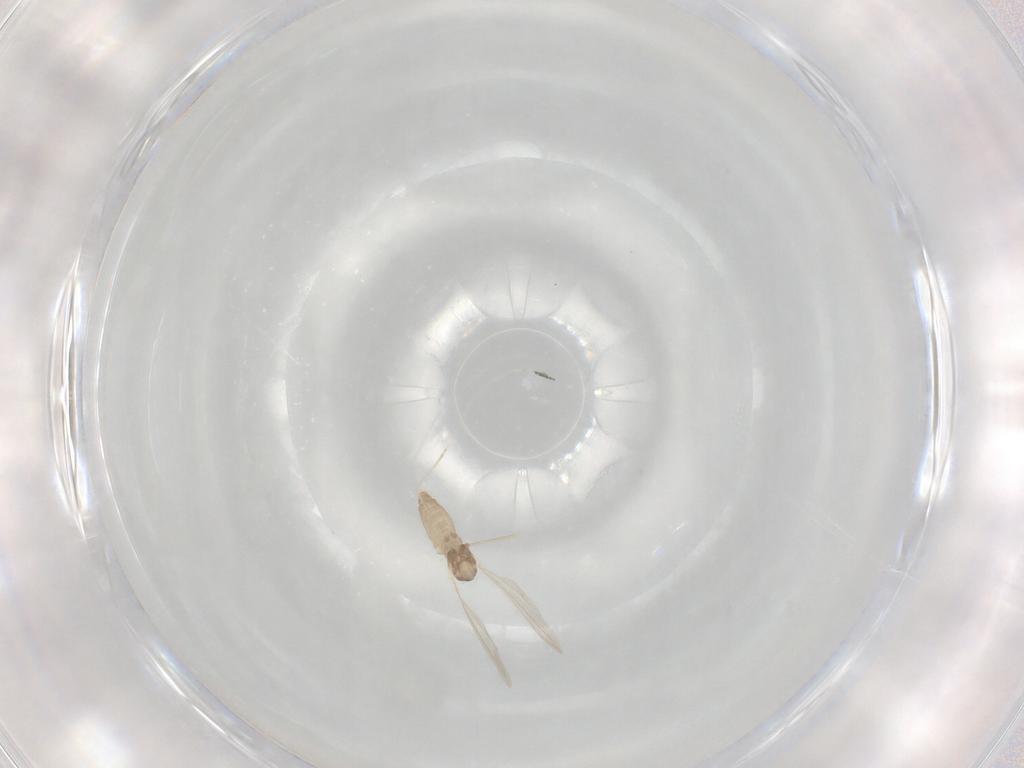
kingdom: Animalia
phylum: Arthropoda
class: Insecta
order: Diptera
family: Cecidomyiidae
